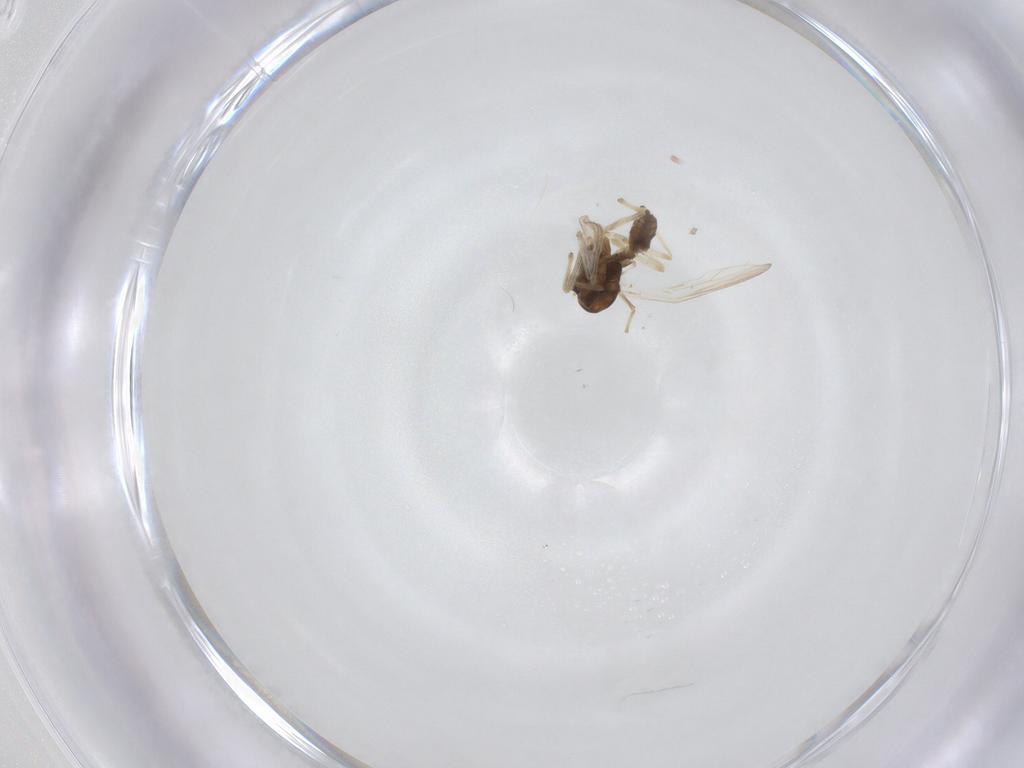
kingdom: Animalia
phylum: Arthropoda
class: Insecta
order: Diptera
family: Chironomidae
